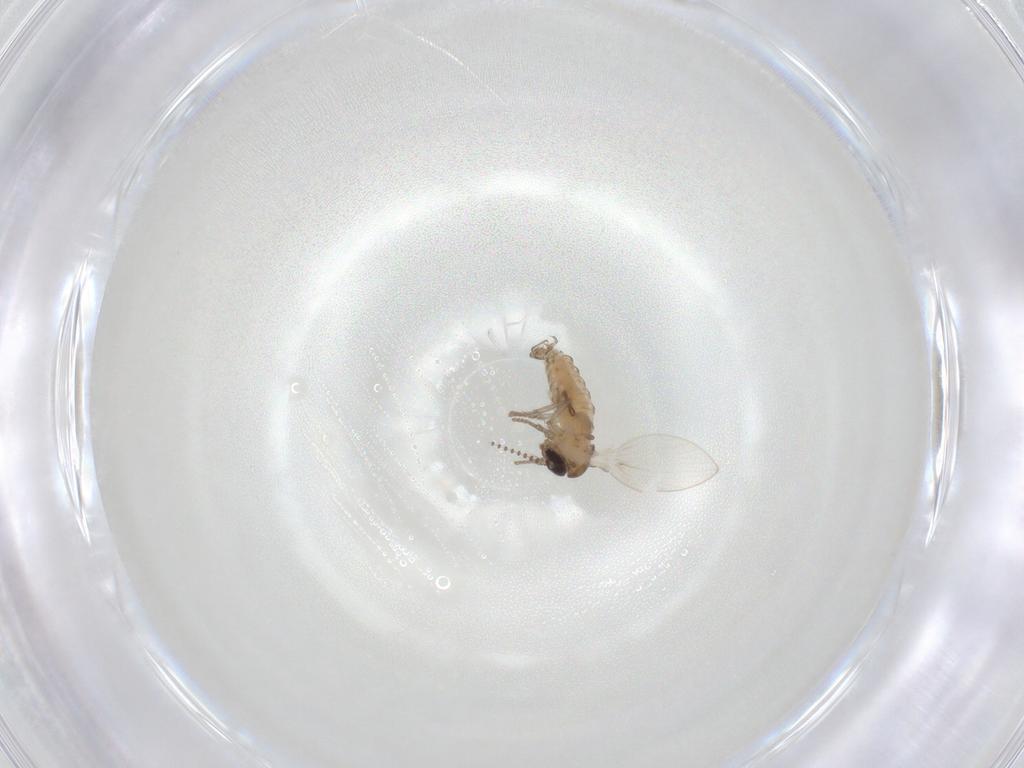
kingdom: Animalia
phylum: Arthropoda
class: Insecta
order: Diptera
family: Psychodidae
